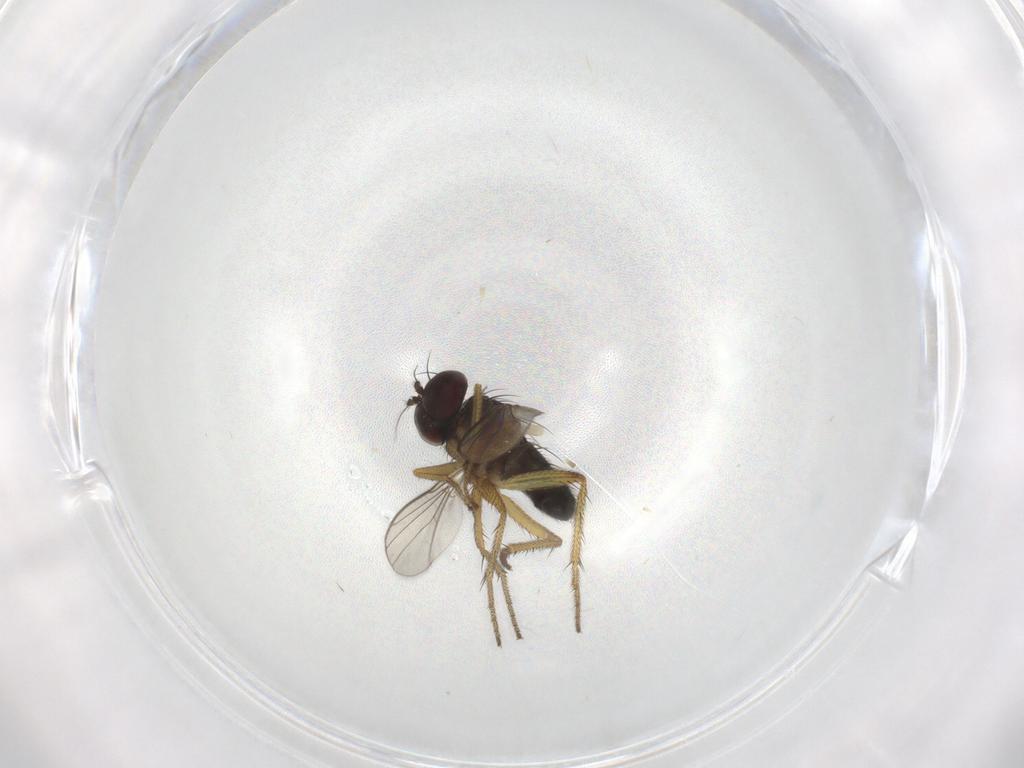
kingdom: Animalia
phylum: Arthropoda
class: Insecta
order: Diptera
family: Dolichopodidae
